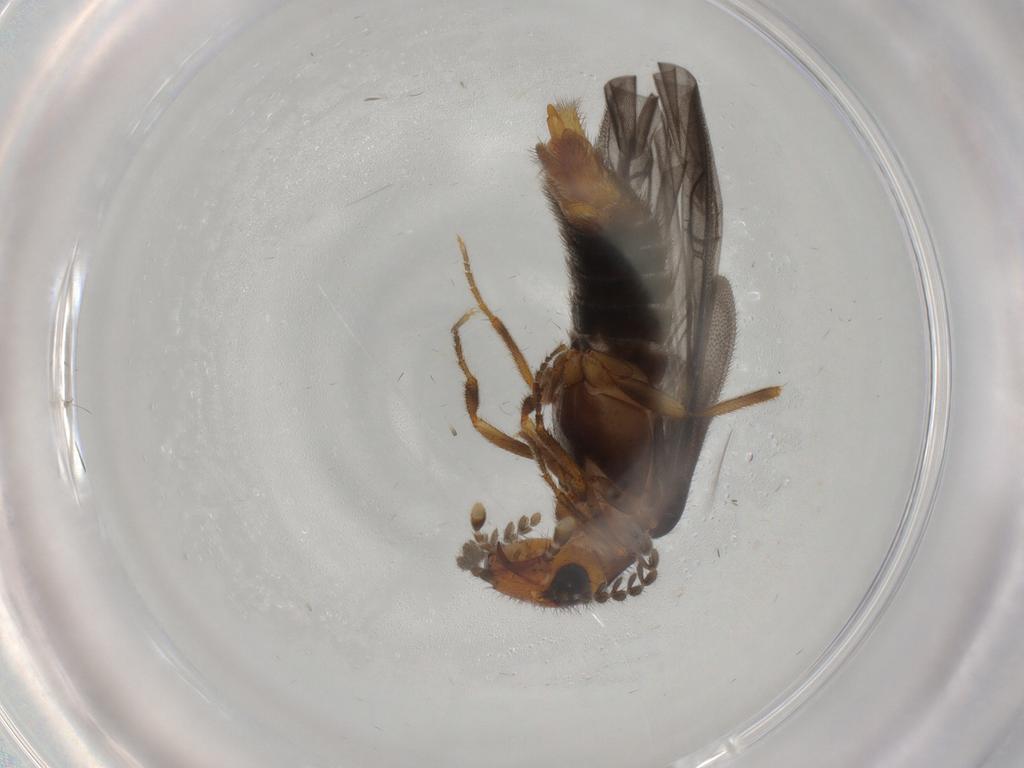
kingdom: Animalia
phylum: Arthropoda
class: Insecta
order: Coleoptera
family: Phengodidae
